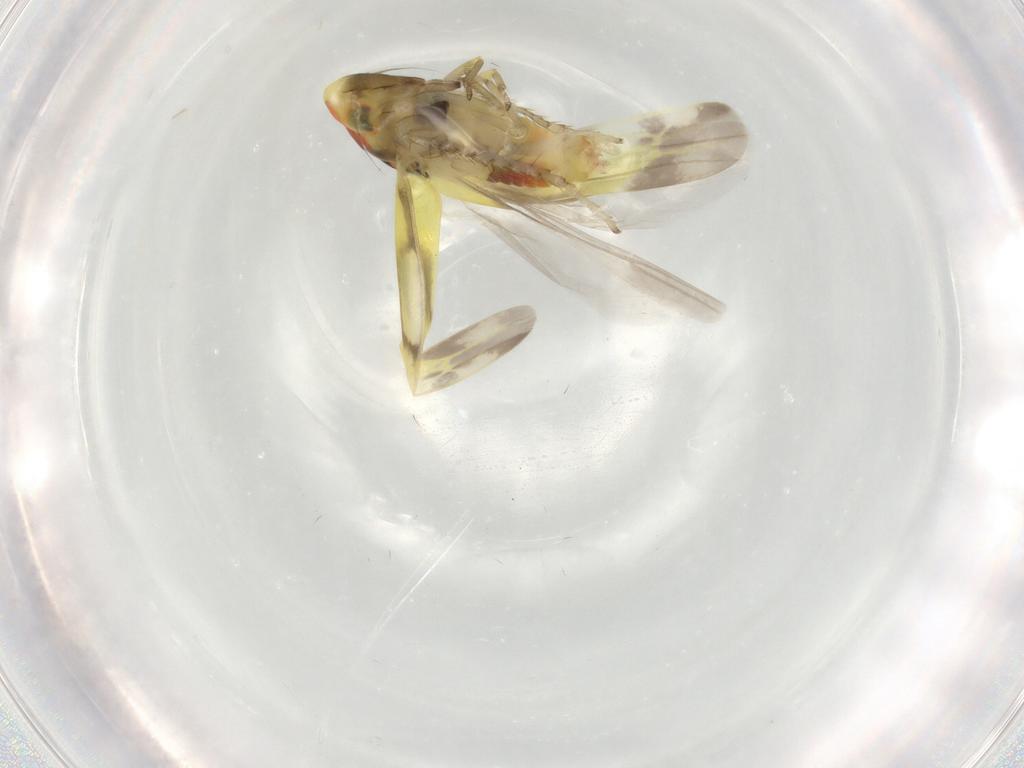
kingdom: Animalia
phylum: Arthropoda
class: Insecta
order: Hemiptera
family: Cicadellidae
